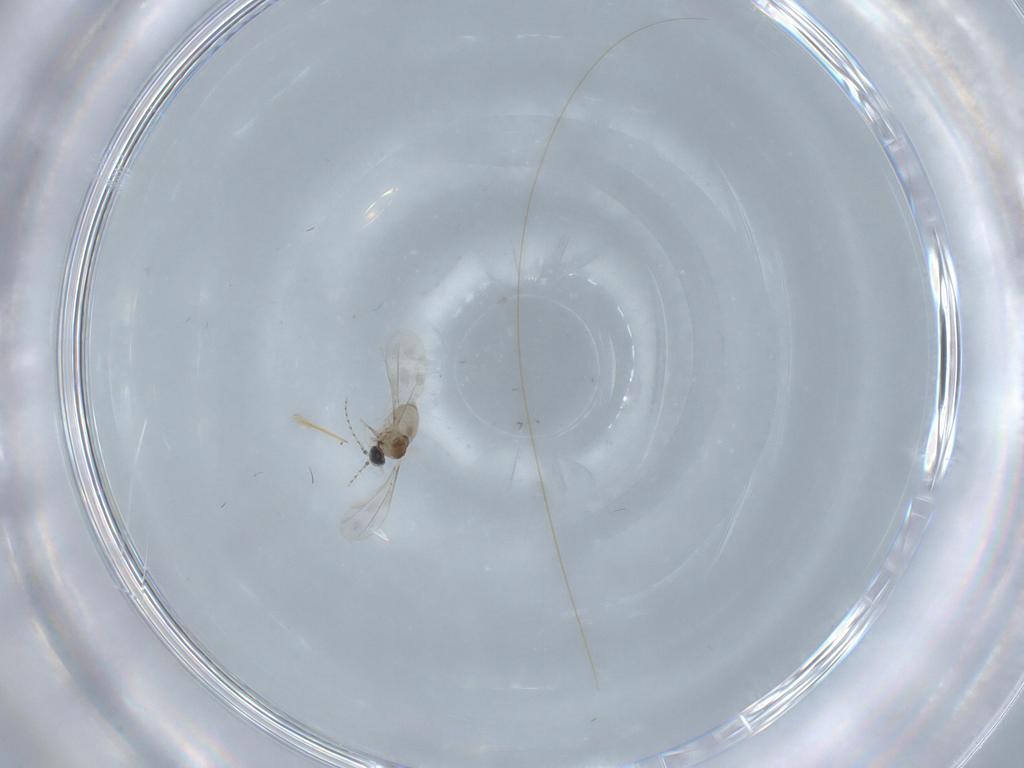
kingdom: Animalia
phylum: Arthropoda
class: Insecta
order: Diptera
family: Cecidomyiidae
